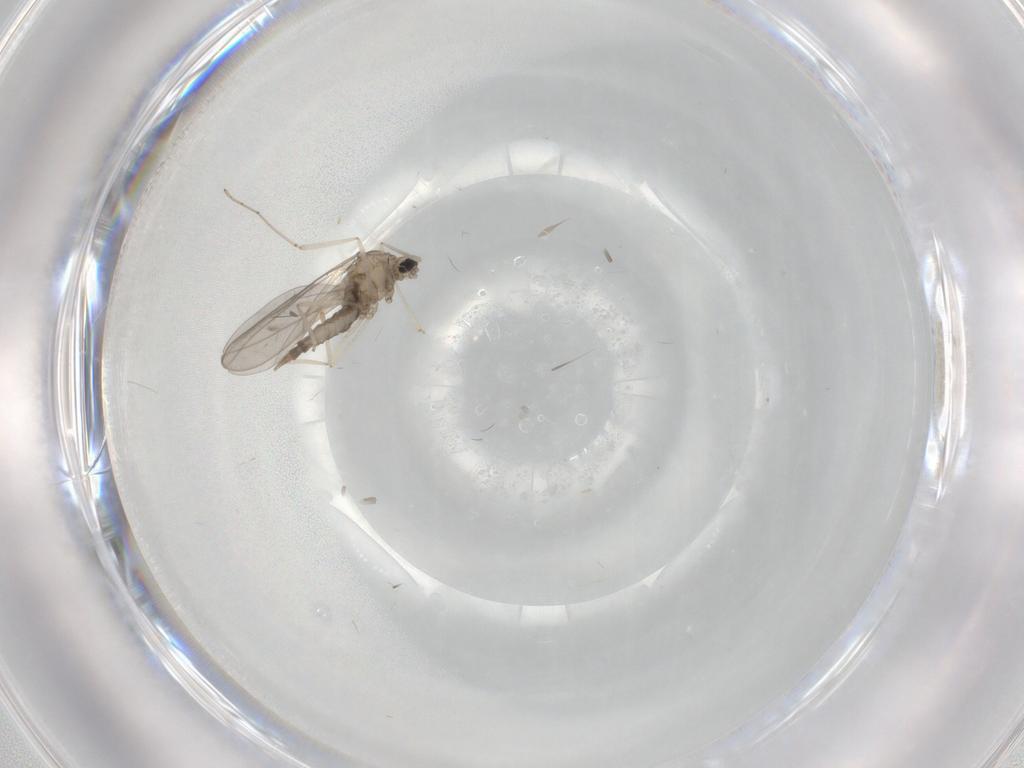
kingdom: Animalia
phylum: Arthropoda
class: Insecta
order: Diptera
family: Cecidomyiidae
